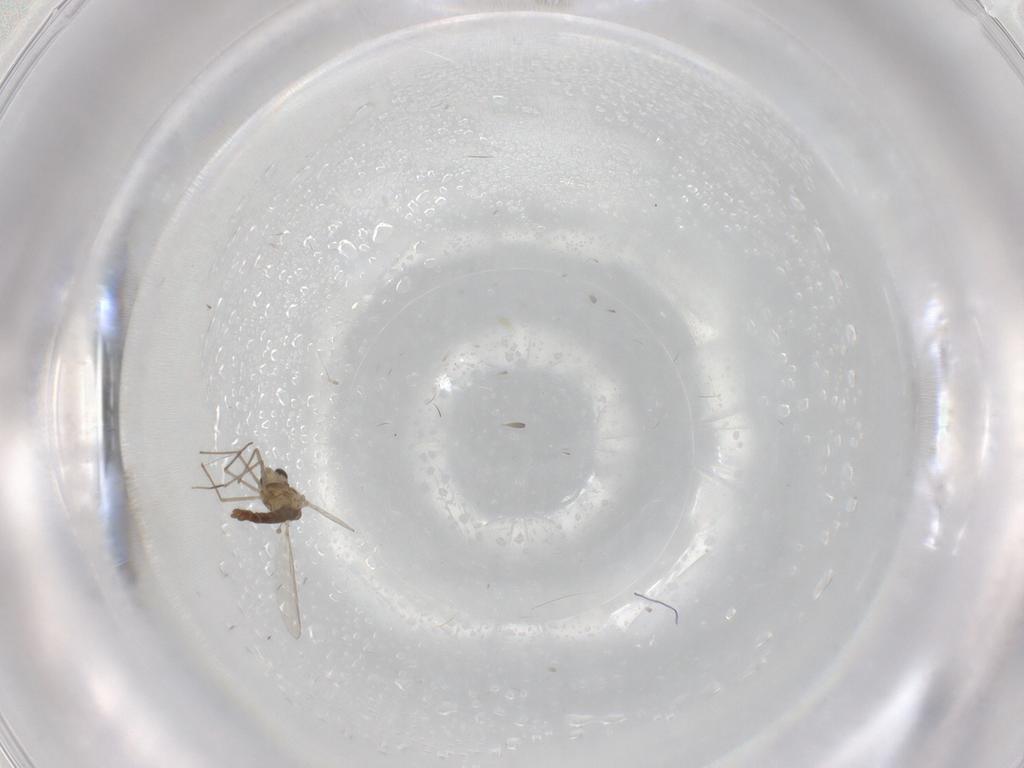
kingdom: Animalia
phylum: Arthropoda
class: Insecta
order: Diptera
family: Chironomidae
